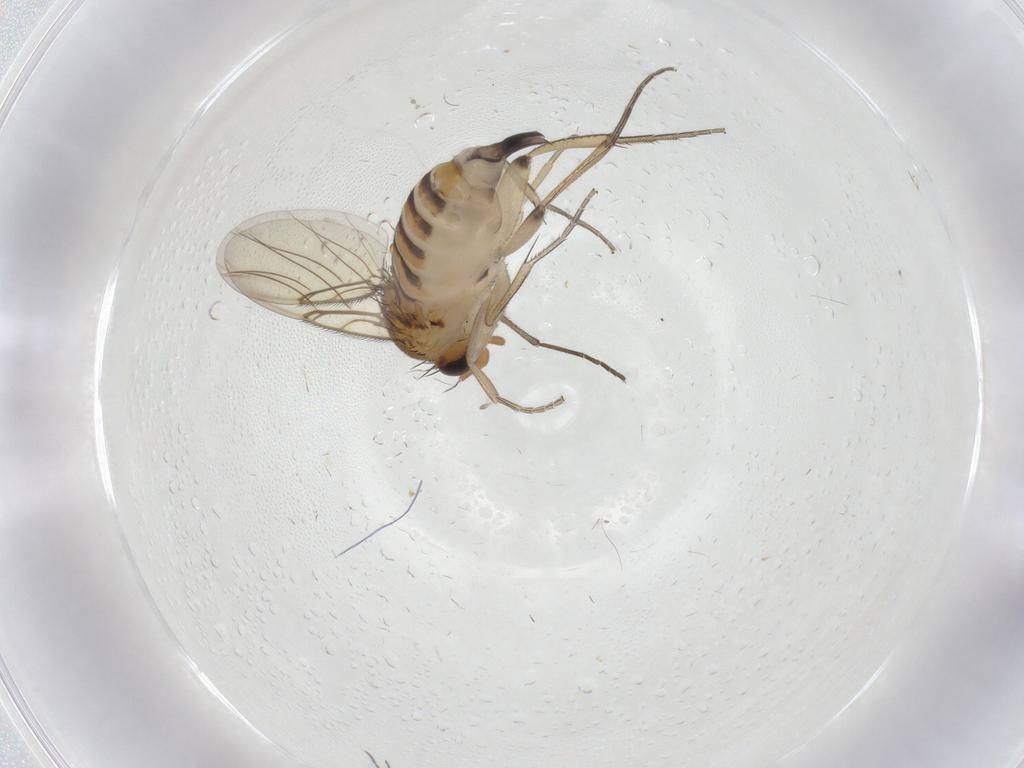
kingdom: Animalia
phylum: Arthropoda
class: Insecta
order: Diptera
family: Phoridae
